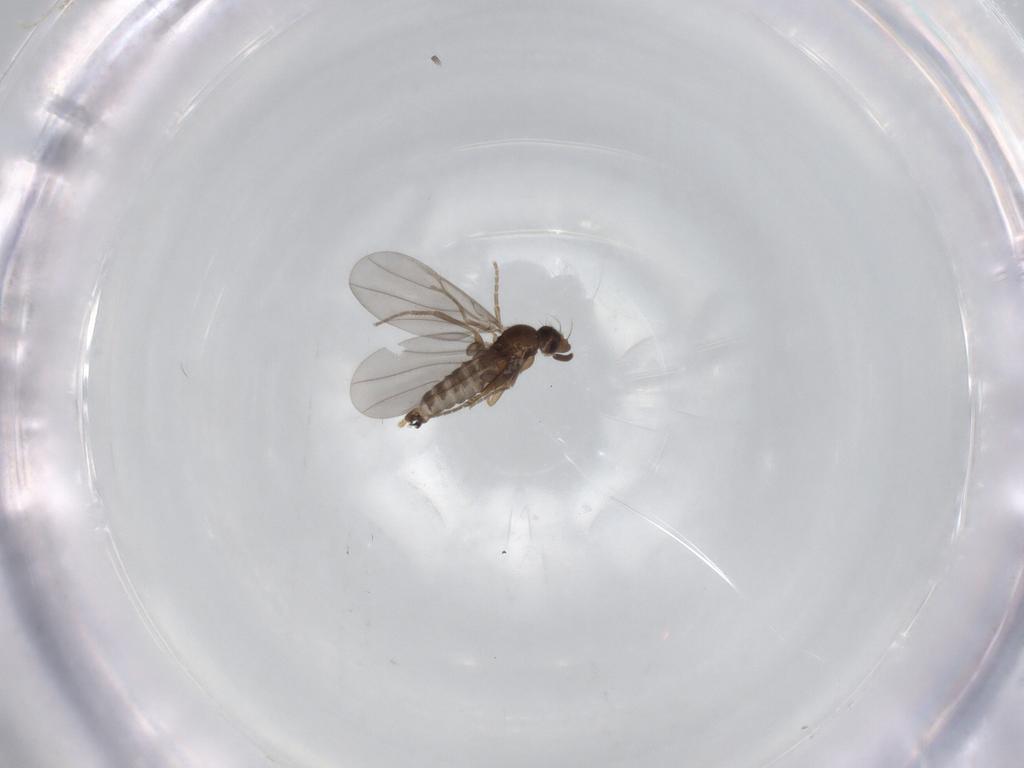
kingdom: Animalia
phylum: Arthropoda
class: Insecta
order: Diptera
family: Phoridae
